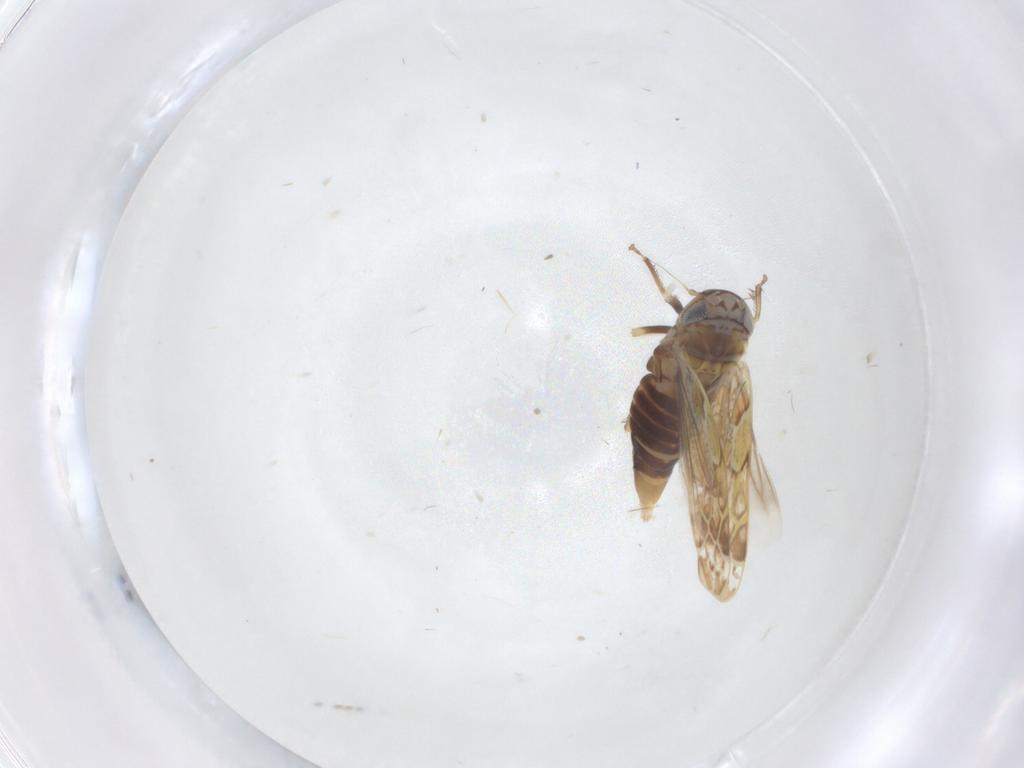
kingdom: Animalia
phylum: Arthropoda
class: Insecta
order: Hemiptera
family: Cicadellidae
